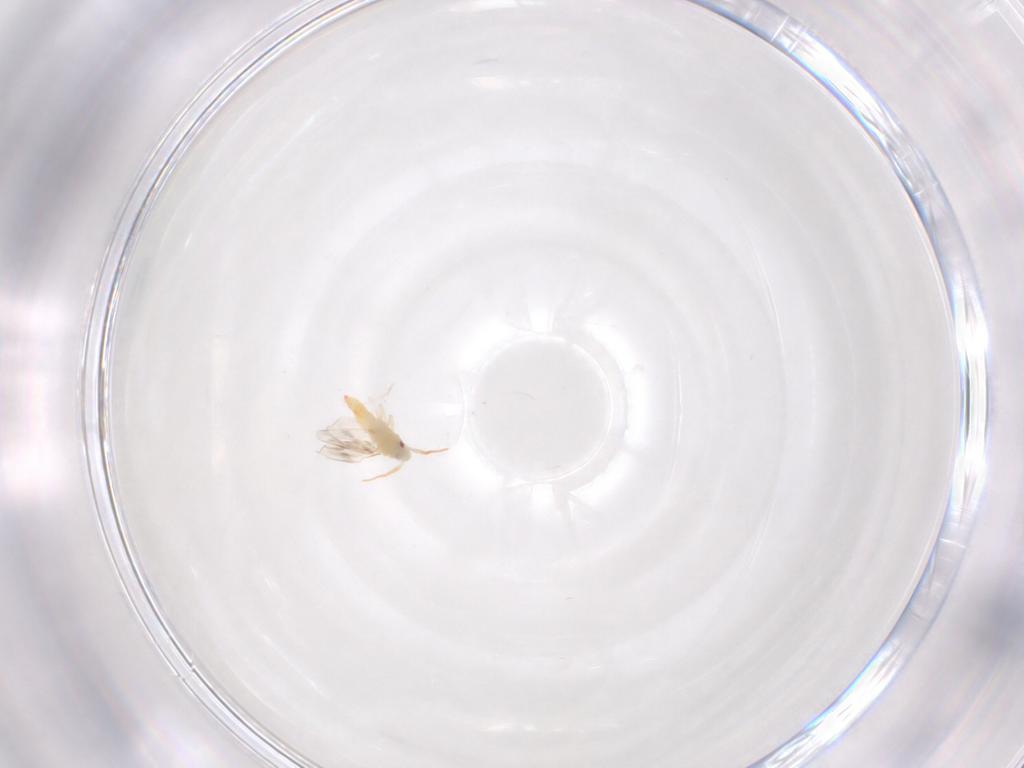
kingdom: Animalia
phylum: Arthropoda
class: Insecta
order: Hemiptera
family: Aleyrodidae
